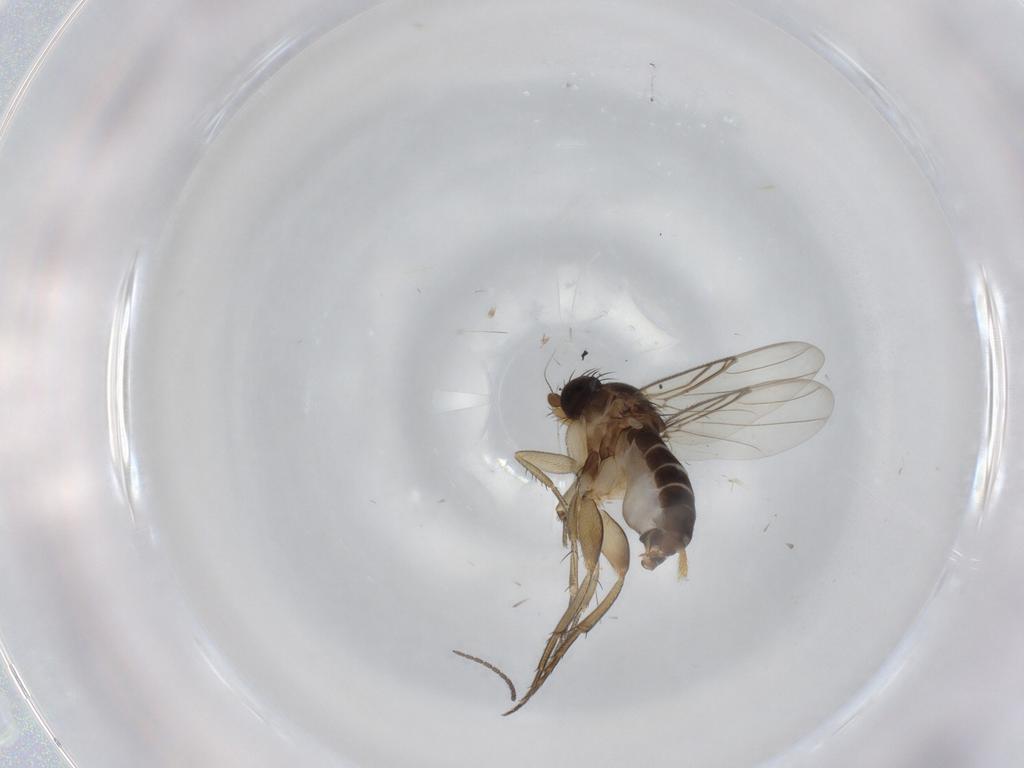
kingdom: Animalia
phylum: Arthropoda
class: Insecta
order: Diptera
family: Phoridae
